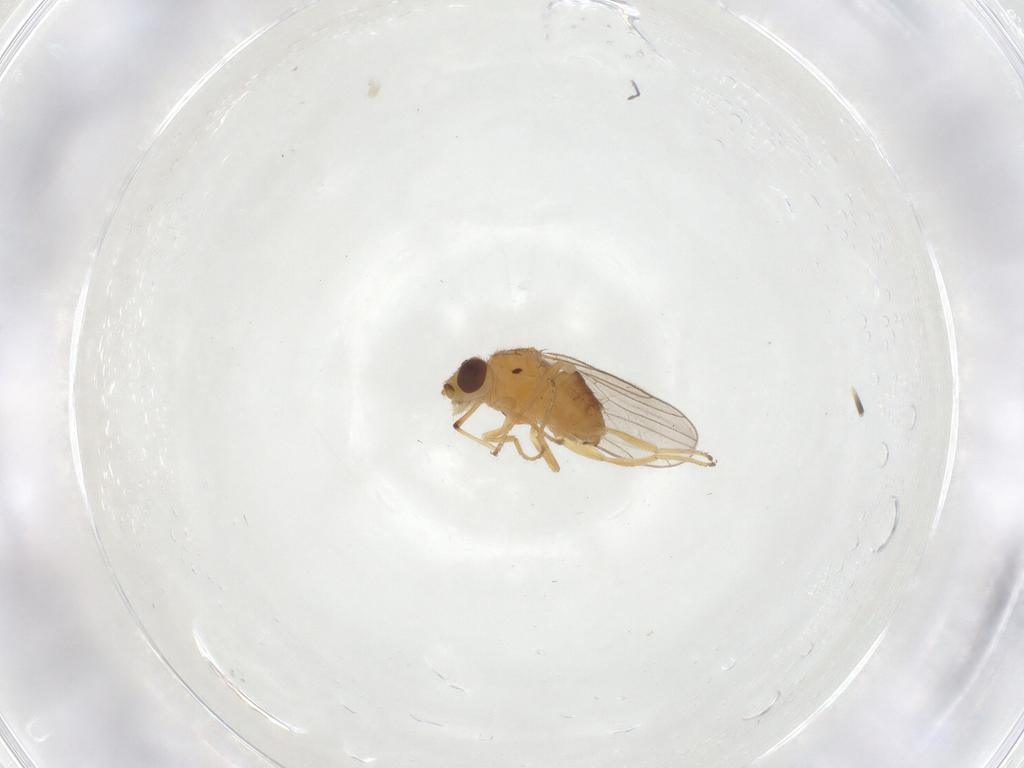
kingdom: Animalia
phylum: Arthropoda
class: Insecta
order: Diptera
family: Chloropidae
